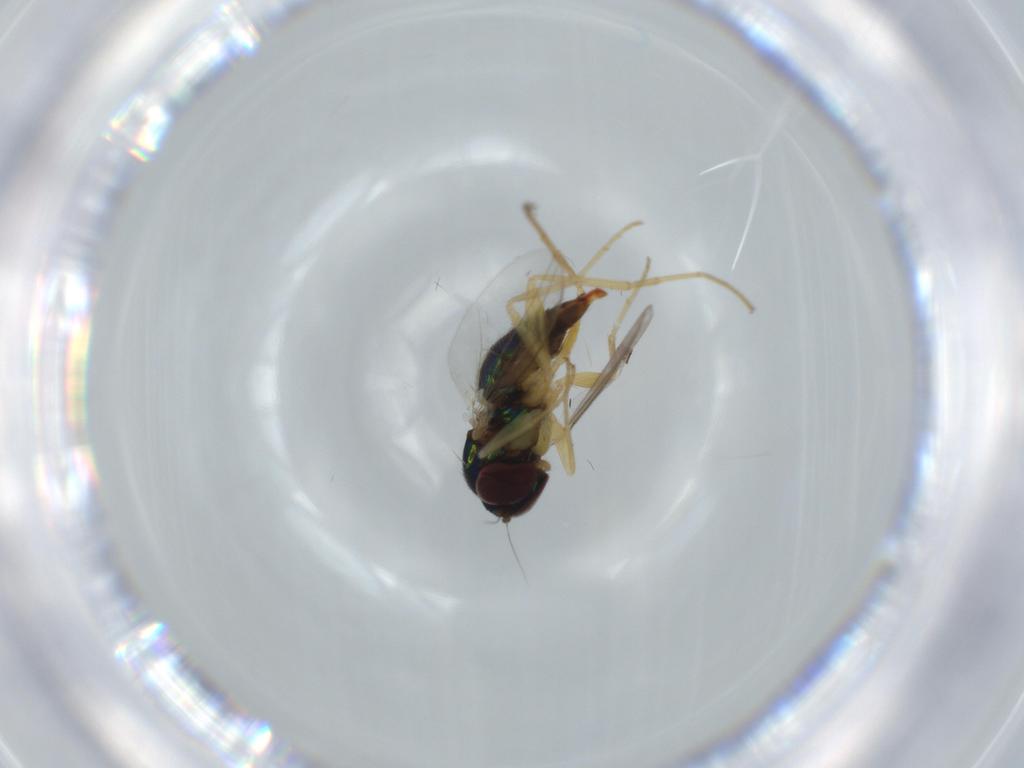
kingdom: Animalia
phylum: Arthropoda
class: Insecta
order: Diptera
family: Dolichopodidae
